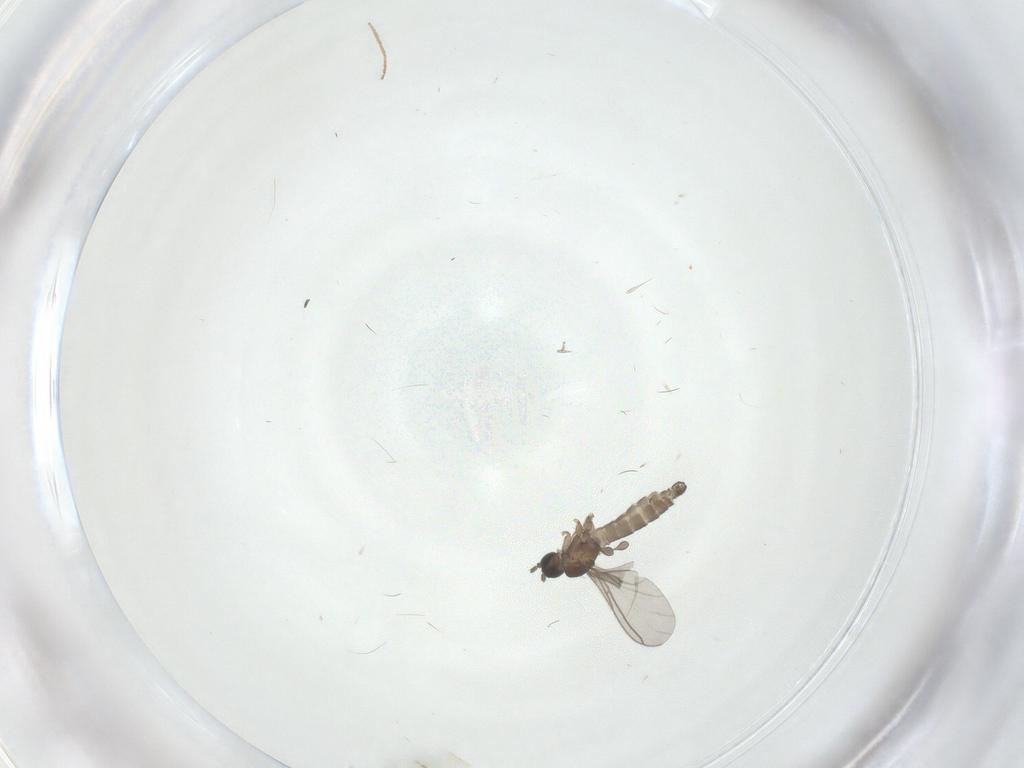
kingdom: Animalia
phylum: Arthropoda
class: Insecta
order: Diptera
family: Sciaridae
